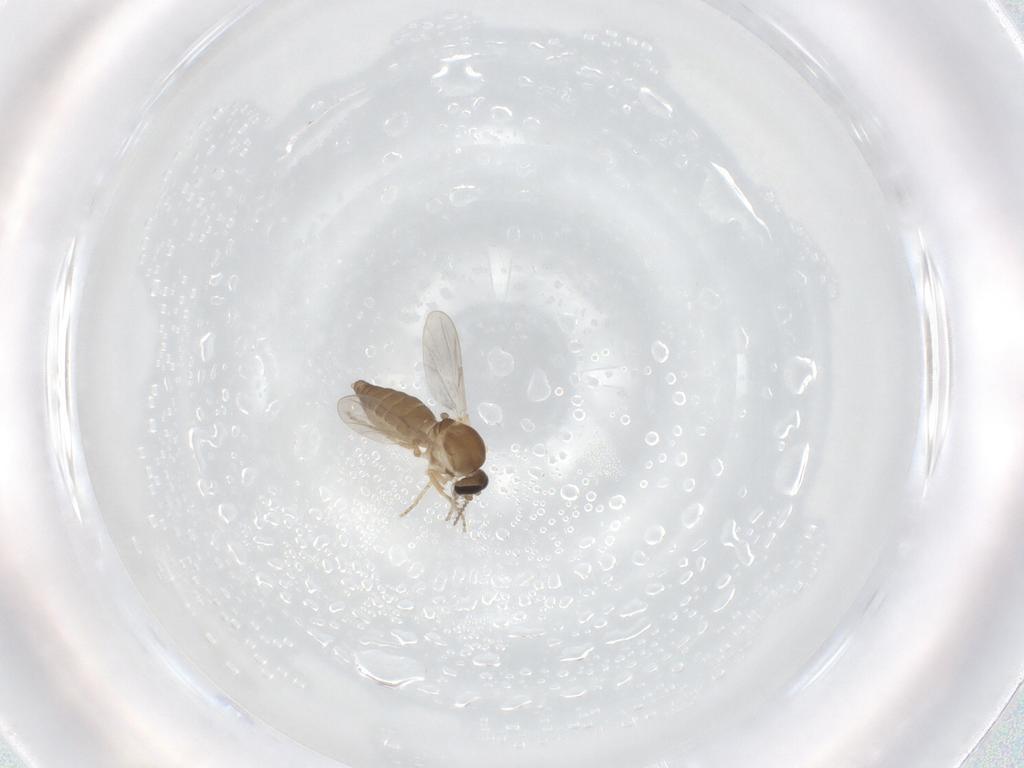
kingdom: Animalia
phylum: Arthropoda
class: Insecta
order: Diptera
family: Ceratopogonidae
